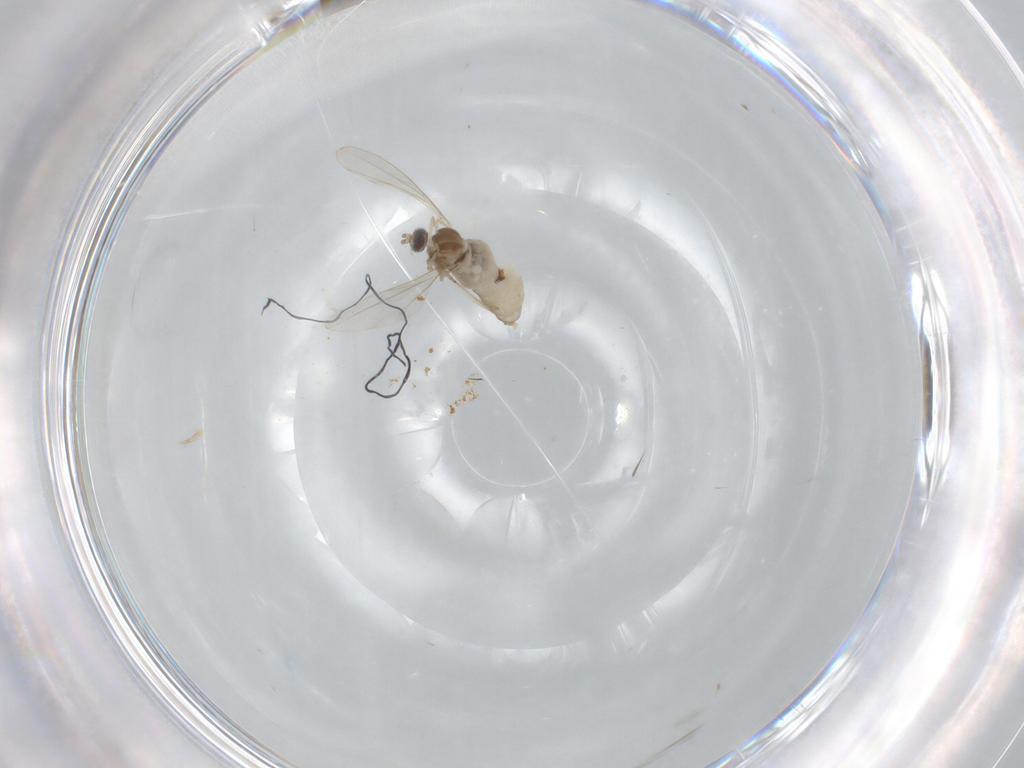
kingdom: Animalia
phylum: Arthropoda
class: Insecta
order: Diptera
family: Cecidomyiidae
